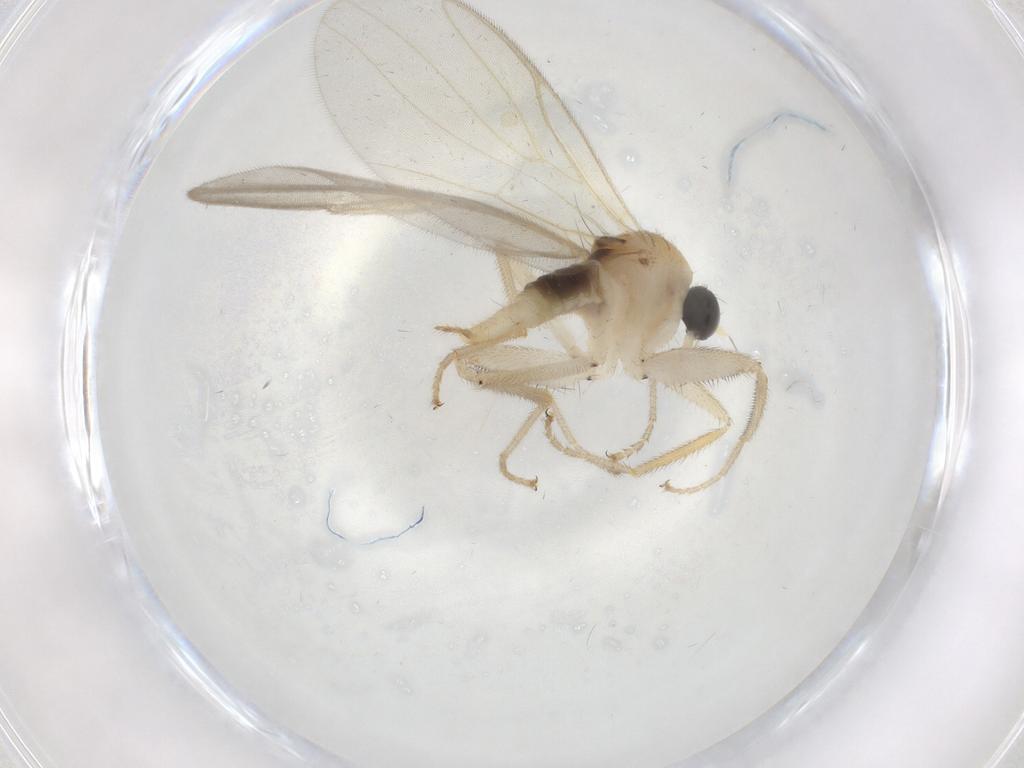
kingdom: Animalia
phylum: Arthropoda
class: Insecta
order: Diptera
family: Hybotidae
